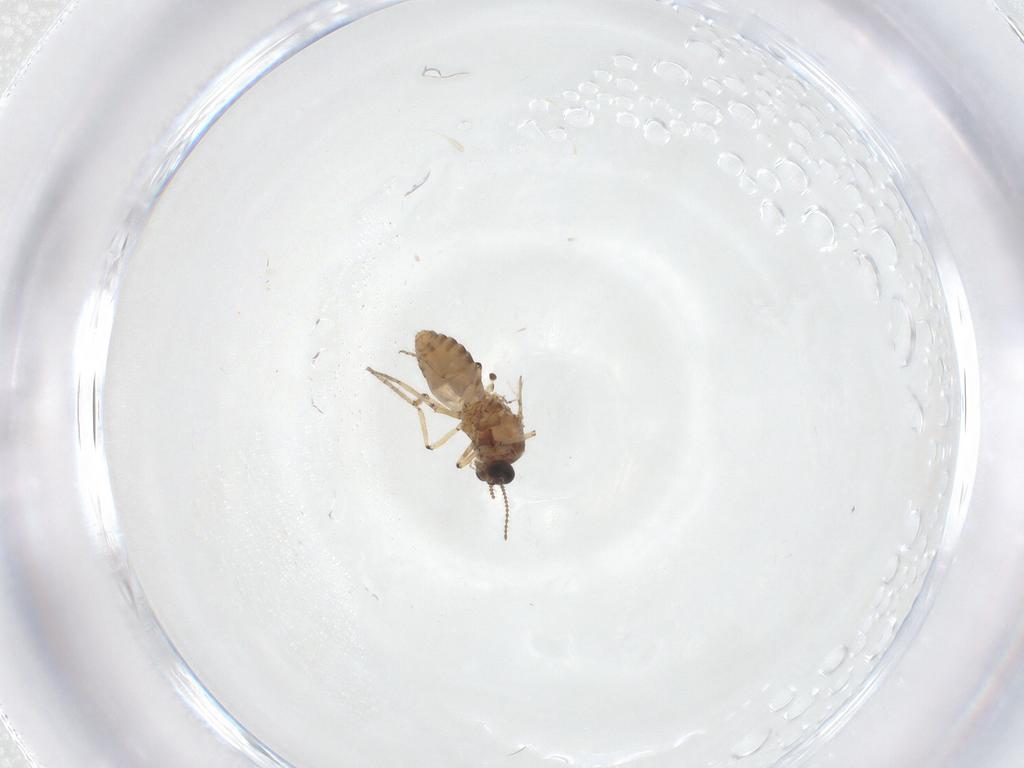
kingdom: Animalia
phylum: Arthropoda
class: Insecta
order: Diptera
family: Ceratopogonidae
